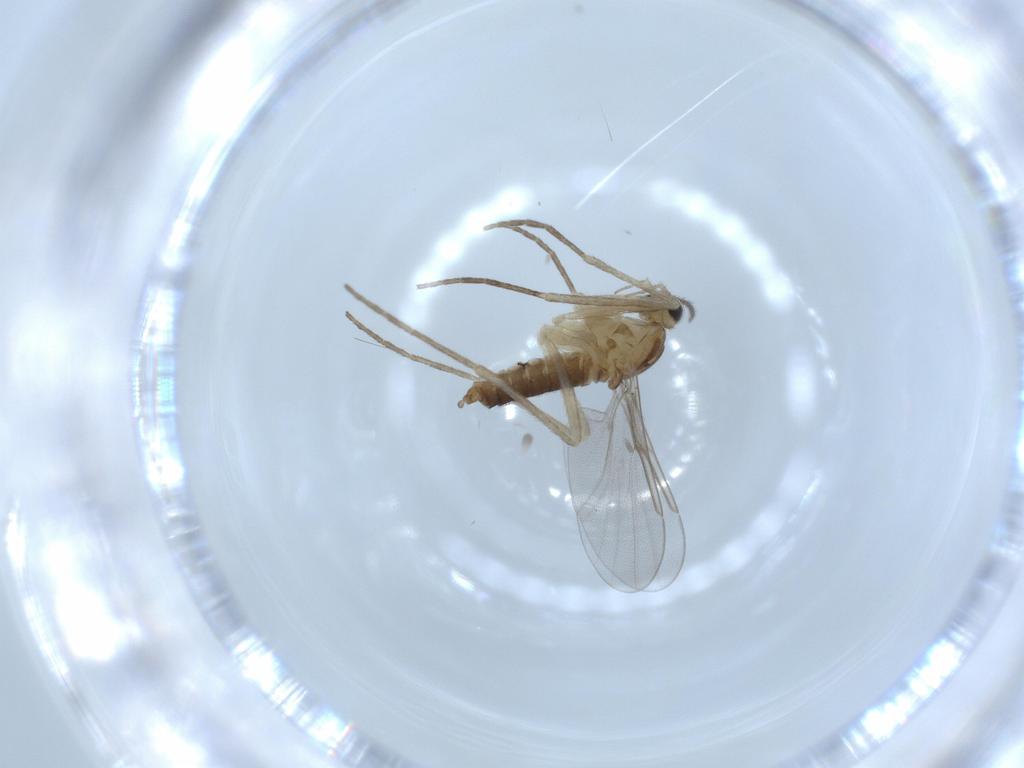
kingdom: Animalia
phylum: Arthropoda
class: Insecta
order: Diptera
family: Cecidomyiidae
